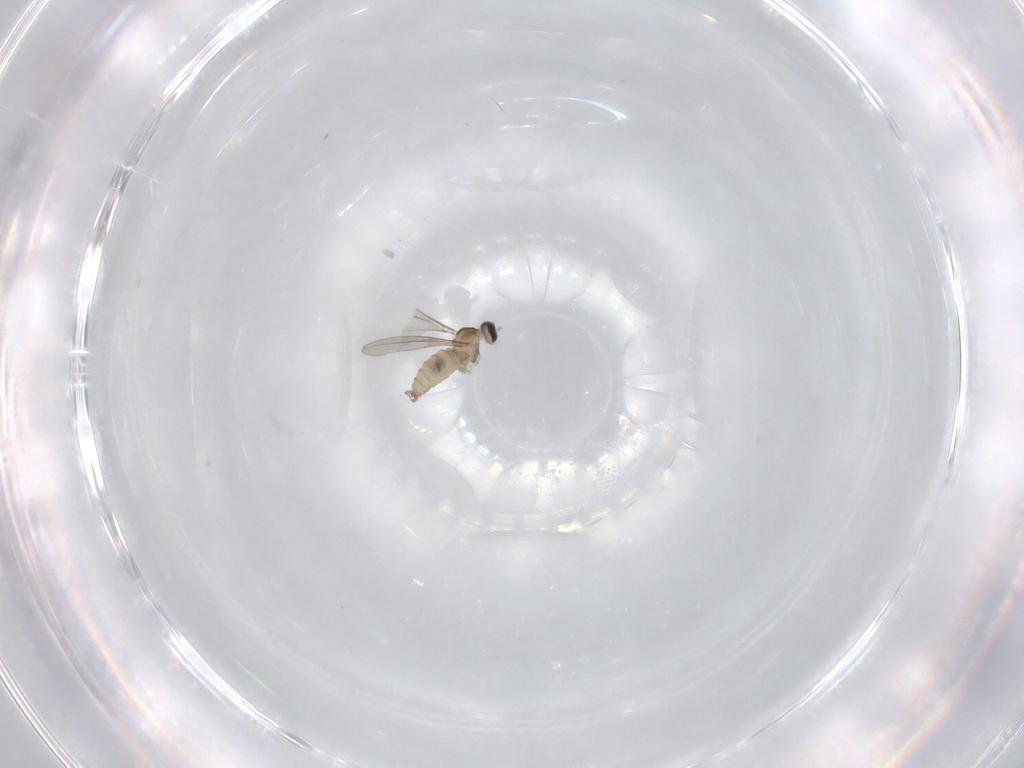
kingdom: Animalia
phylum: Arthropoda
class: Insecta
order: Diptera
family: Cecidomyiidae
